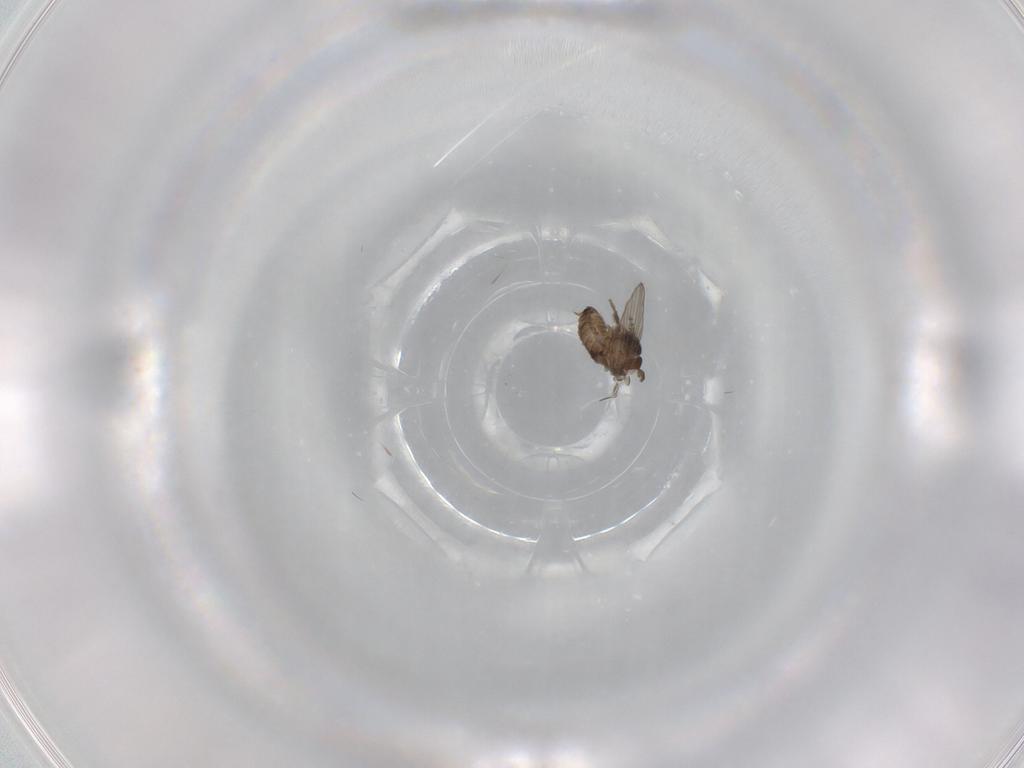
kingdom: Animalia
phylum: Arthropoda
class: Insecta
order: Diptera
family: Psychodidae
